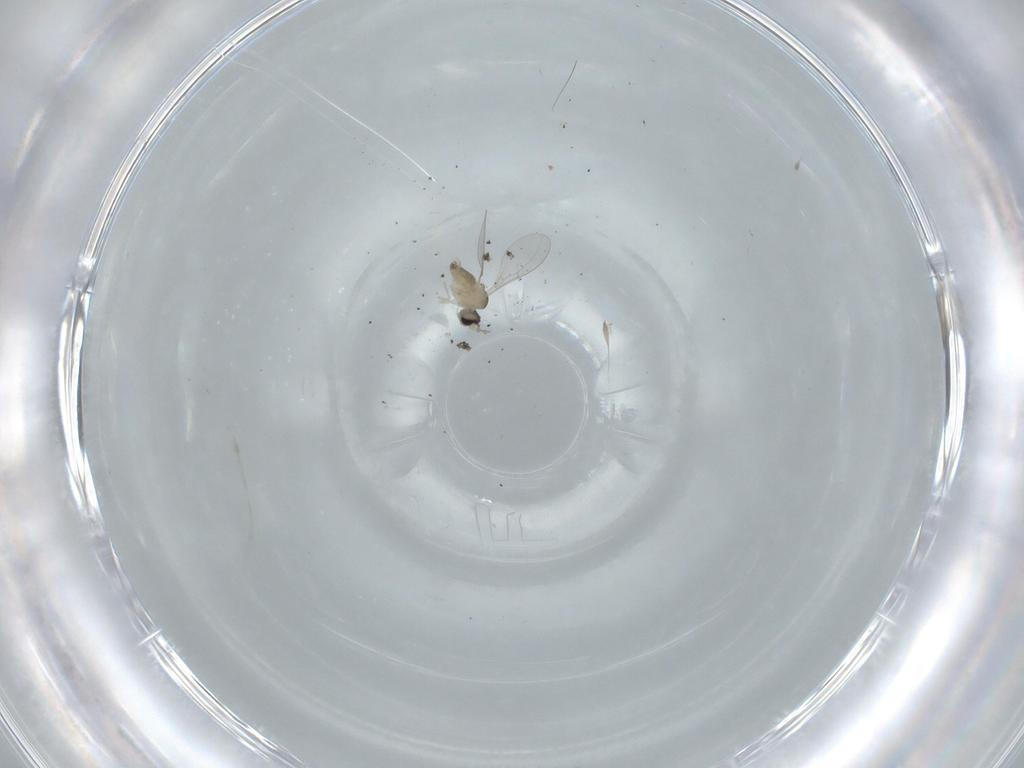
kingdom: Animalia
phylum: Arthropoda
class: Insecta
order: Diptera
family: Cecidomyiidae
